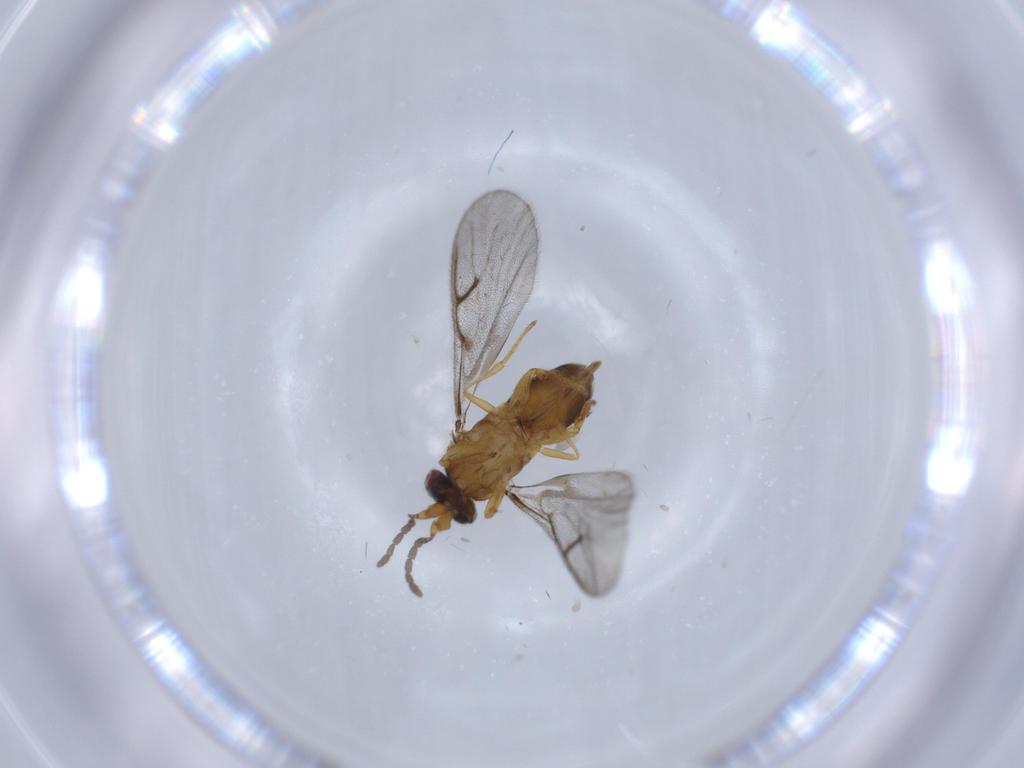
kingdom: Animalia
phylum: Arthropoda
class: Insecta
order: Hymenoptera
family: Agaonidae
